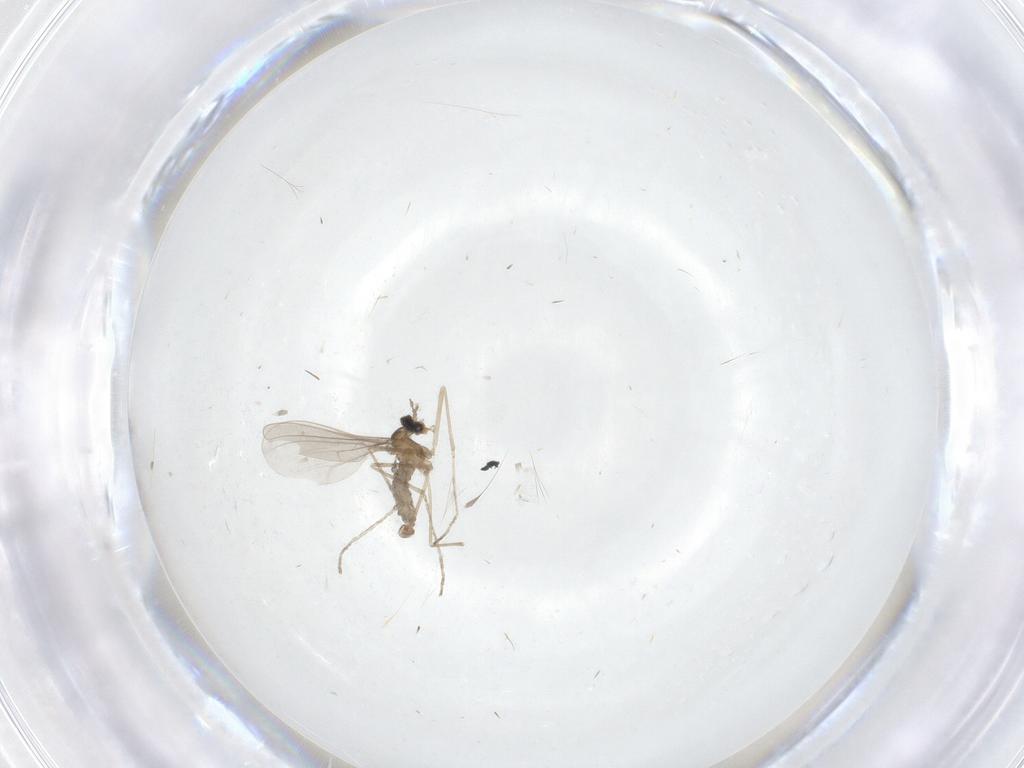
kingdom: Animalia
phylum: Arthropoda
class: Insecta
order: Diptera
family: Cecidomyiidae
